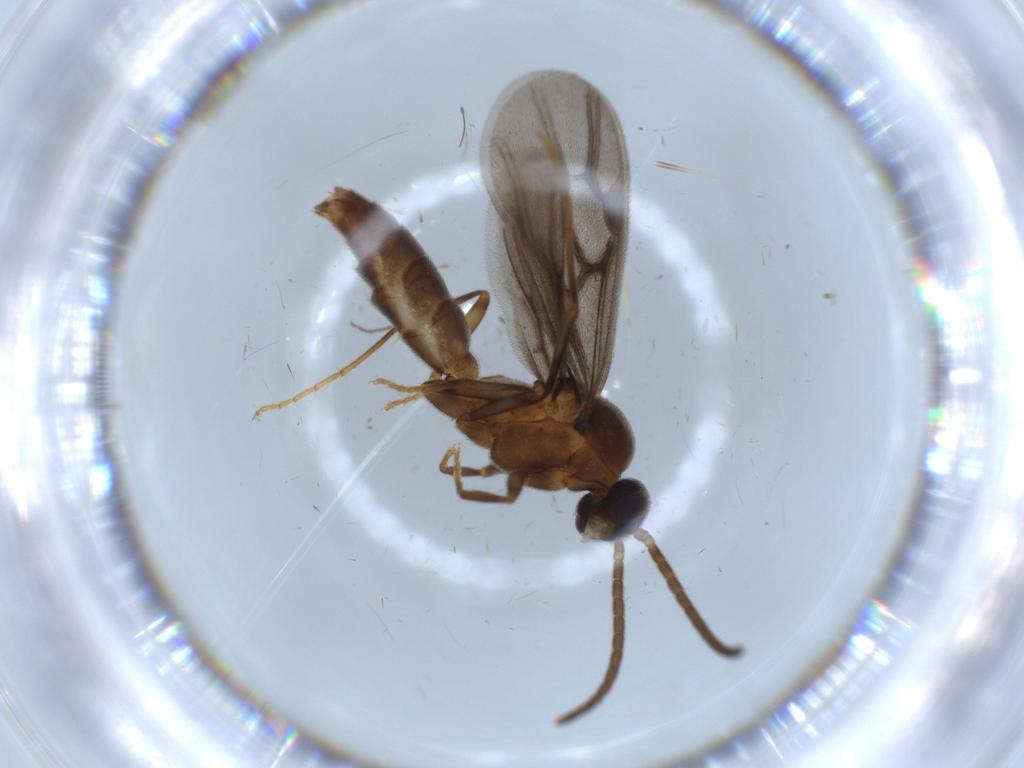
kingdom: Animalia
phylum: Arthropoda
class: Insecta
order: Hymenoptera
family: Formicidae
